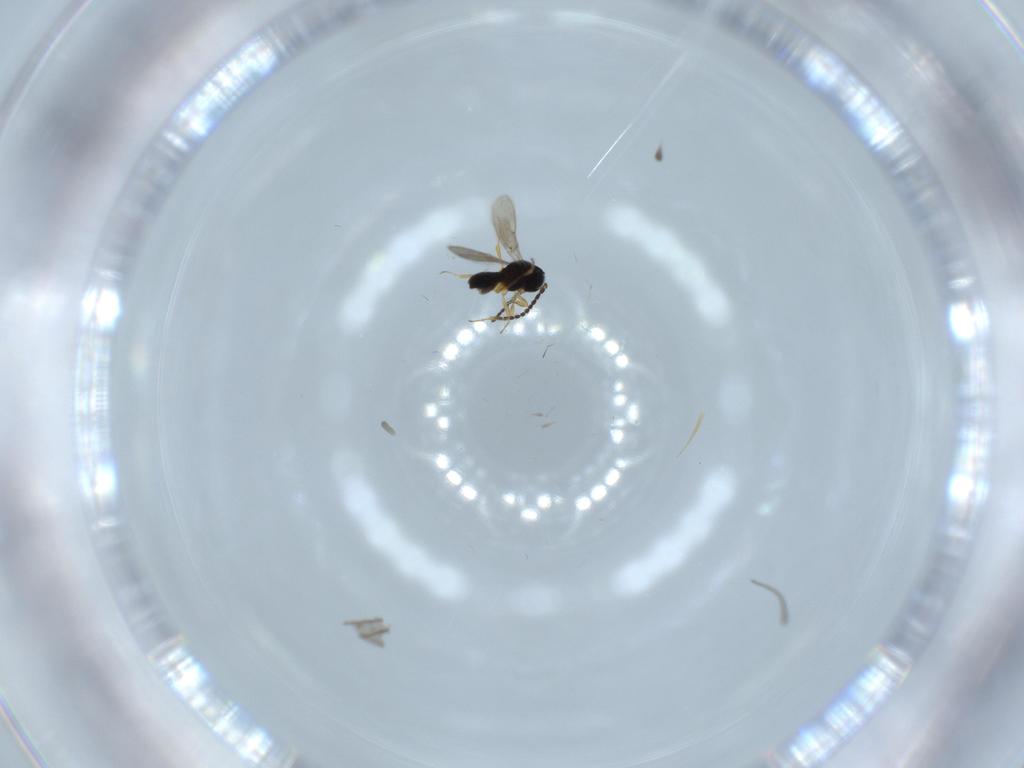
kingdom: Animalia
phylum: Arthropoda
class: Insecta
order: Hymenoptera
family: Scelionidae
